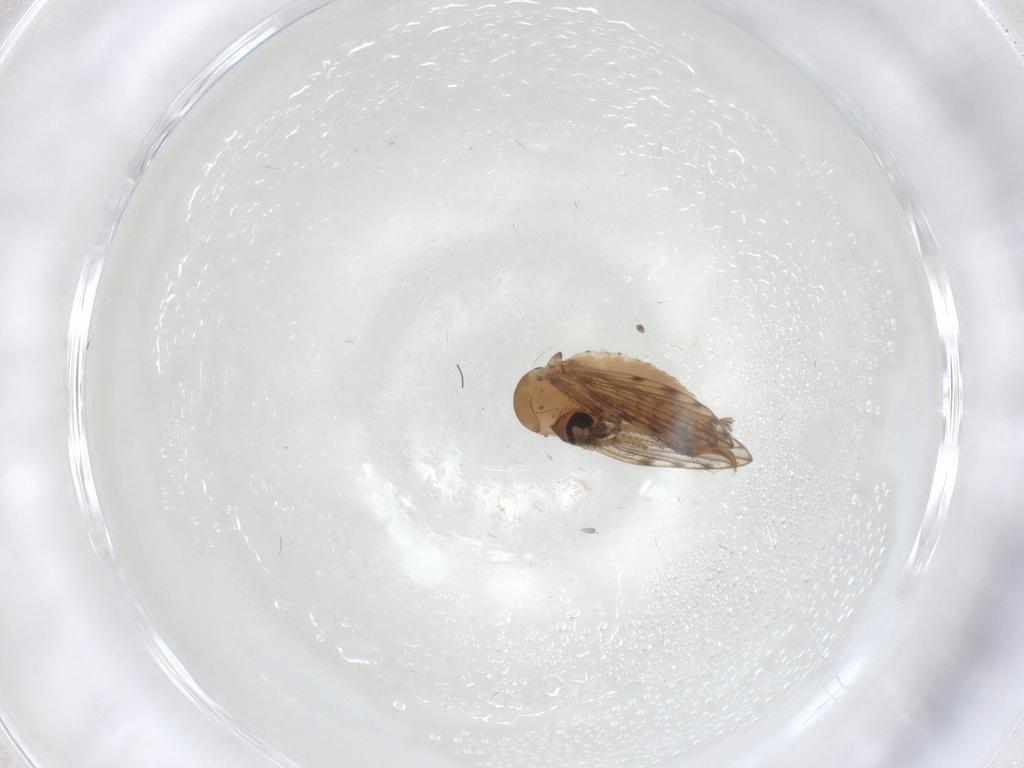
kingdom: Animalia
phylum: Arthropoda
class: Insecta
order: Diptera
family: Psychodidae
